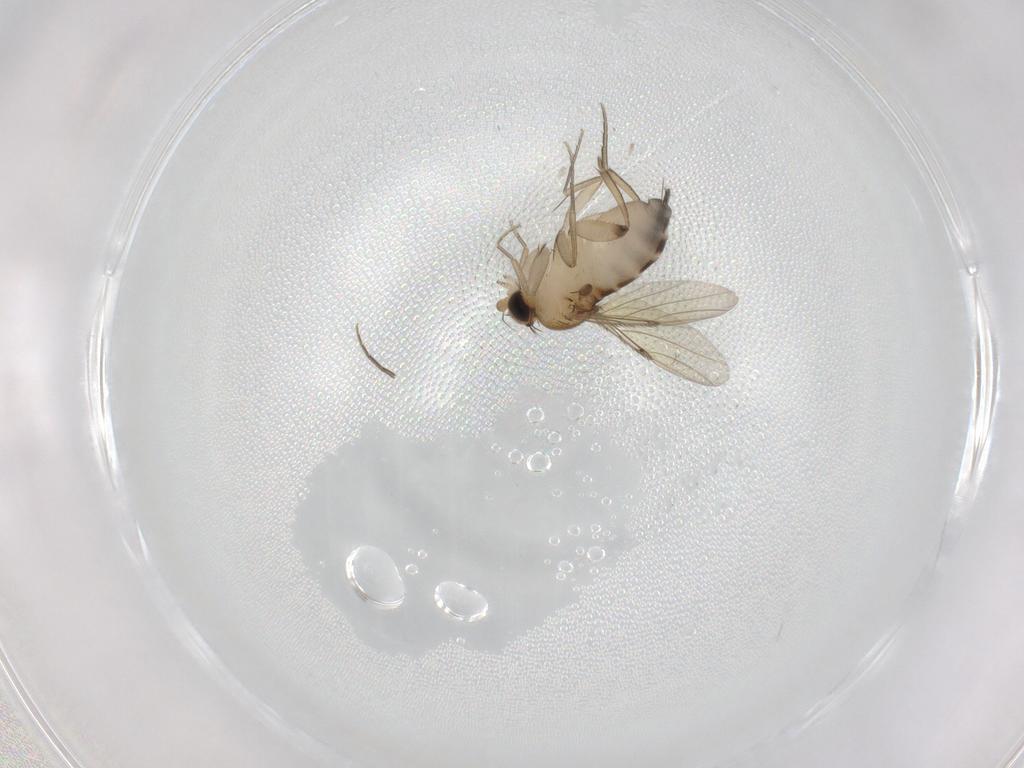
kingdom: Animalia
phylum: Arthropoda
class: Insecta
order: Diptera
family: Phoridae
